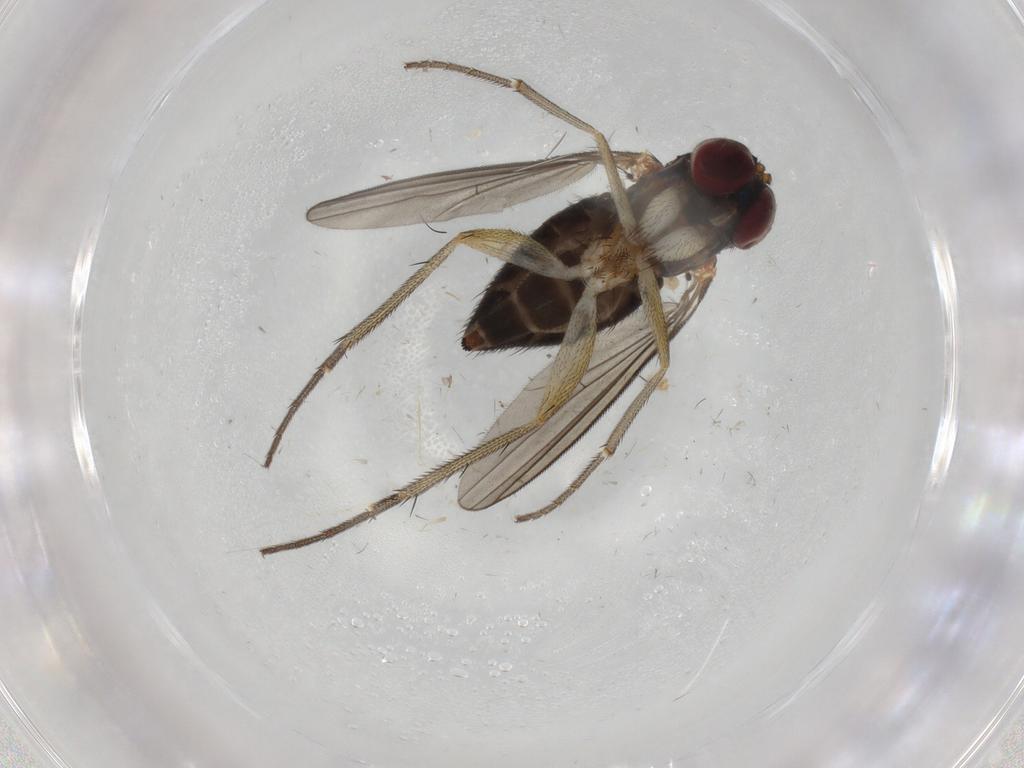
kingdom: Animalia
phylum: Arthropoda
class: Insecta
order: Diptera
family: Dolichopodidae
